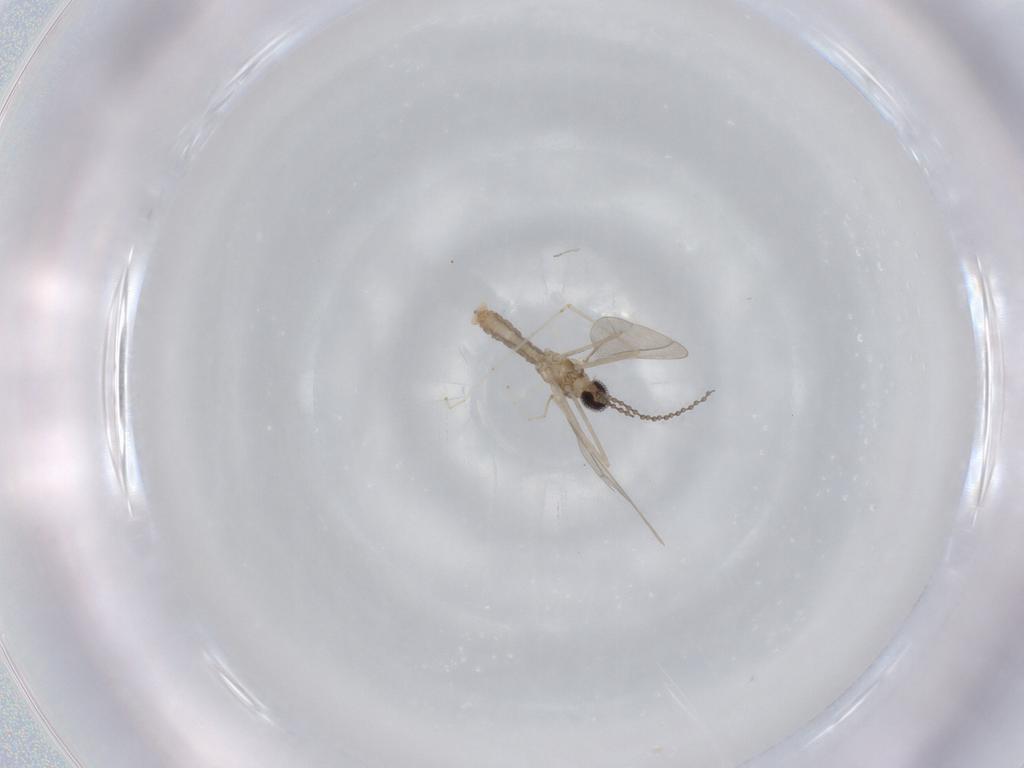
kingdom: Animalia
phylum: Arthropoda
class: Insecta
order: Diptera
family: Cecidomyiidae
